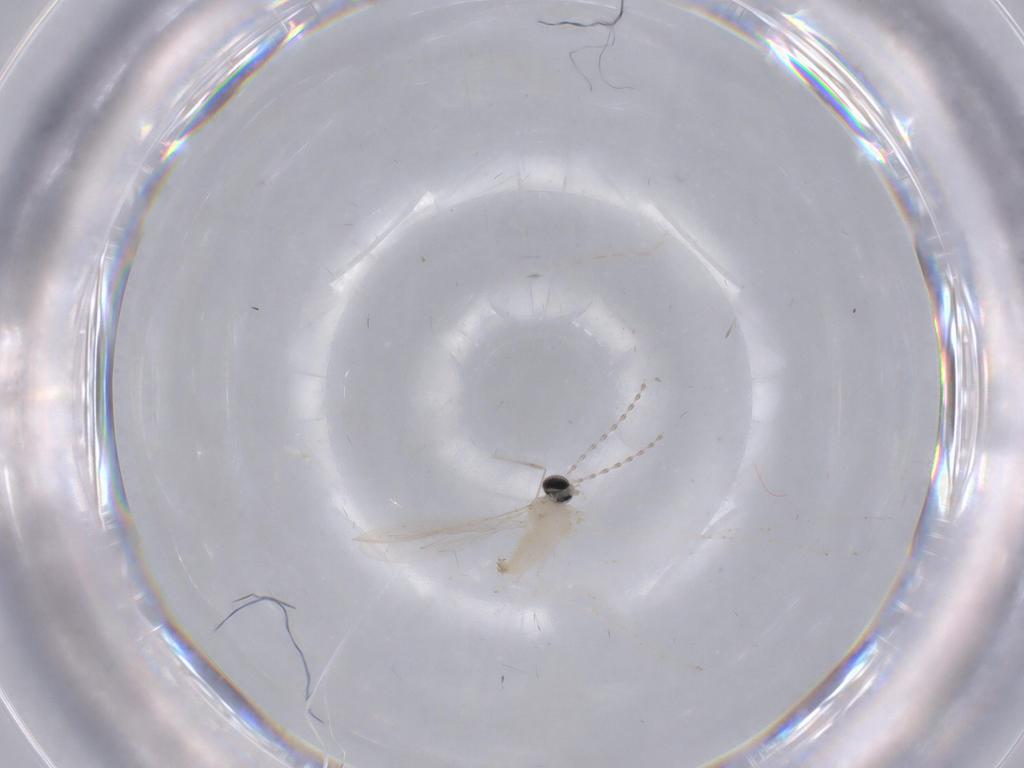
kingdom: Animalia
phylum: Arthropoda
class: Insecta
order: Diptera
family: Cecidomyiidae
